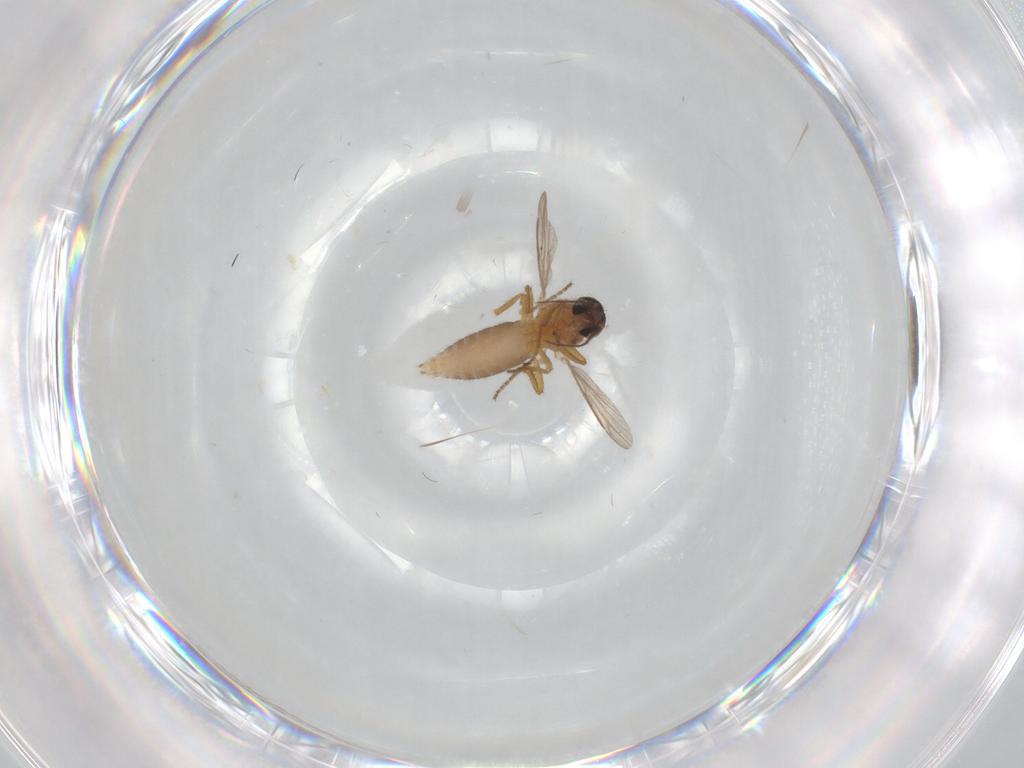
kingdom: Animalia
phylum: Arthropoda
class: Insecta
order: Diptera
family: Ceratopogonidae
